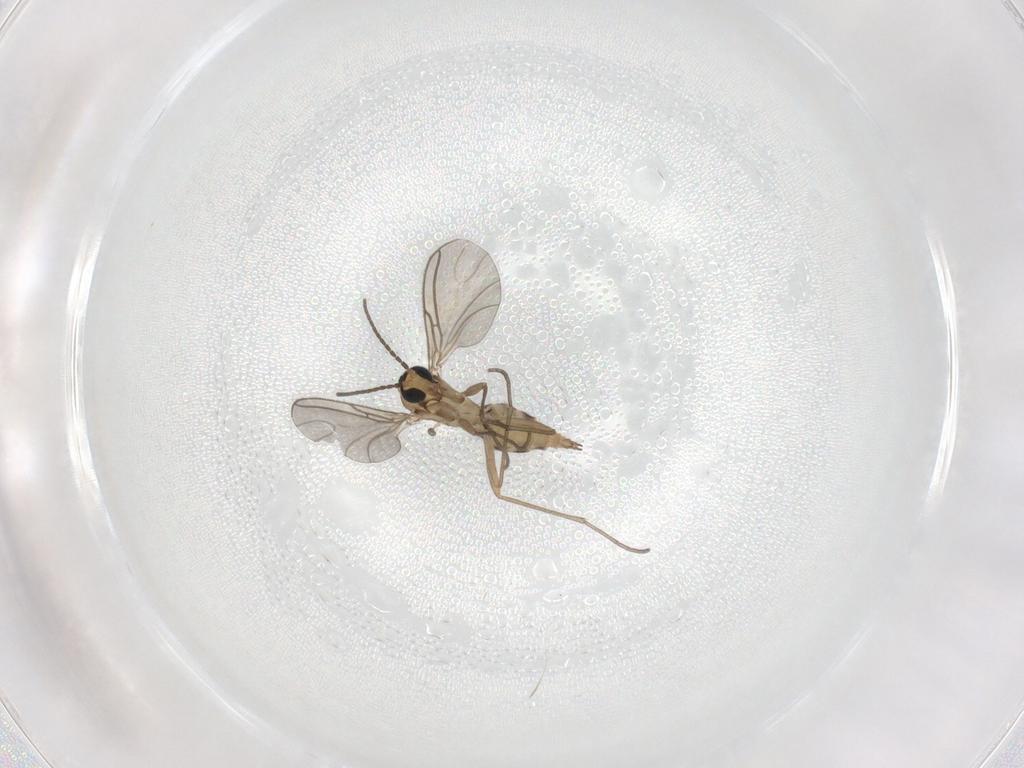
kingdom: Animalia
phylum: Arthropoda
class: Insecta
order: Diptera
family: Sciaridae
